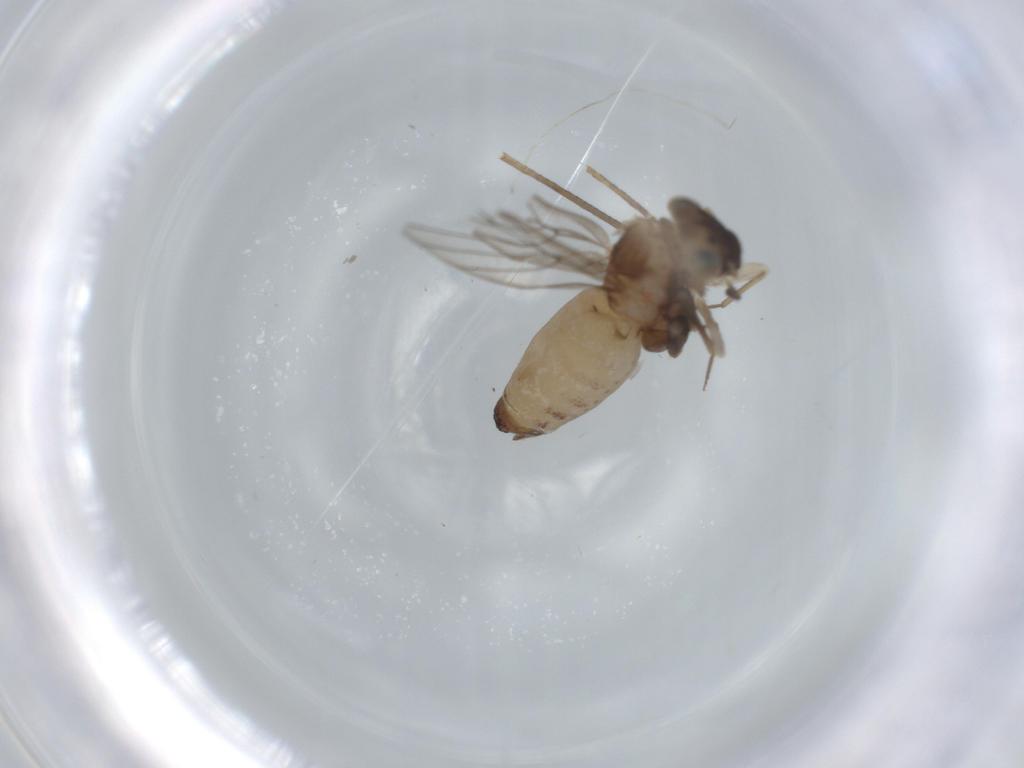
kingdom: Animalia
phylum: Arthropoda
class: Insecta
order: Psocodea
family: Lepidopsocidae
